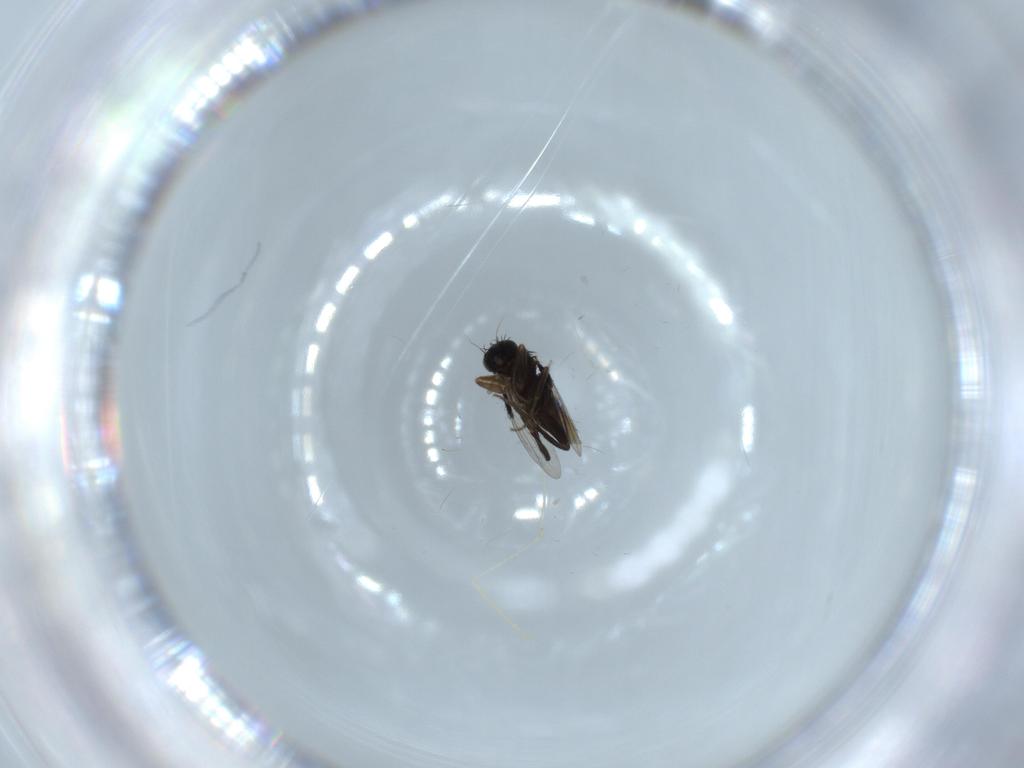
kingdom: Animalia
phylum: Arthropoda
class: Insecta
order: Diptera
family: Phoridae
